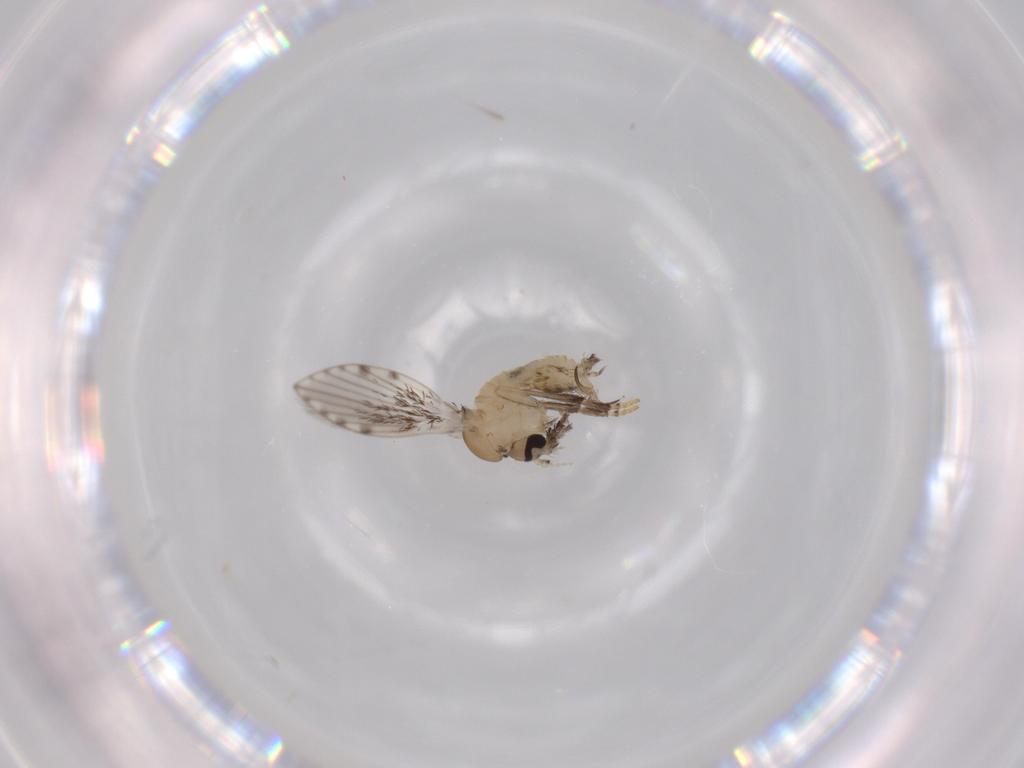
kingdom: Animalia
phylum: Arthropoda
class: Insecta
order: Diptera
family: Psychodidae
